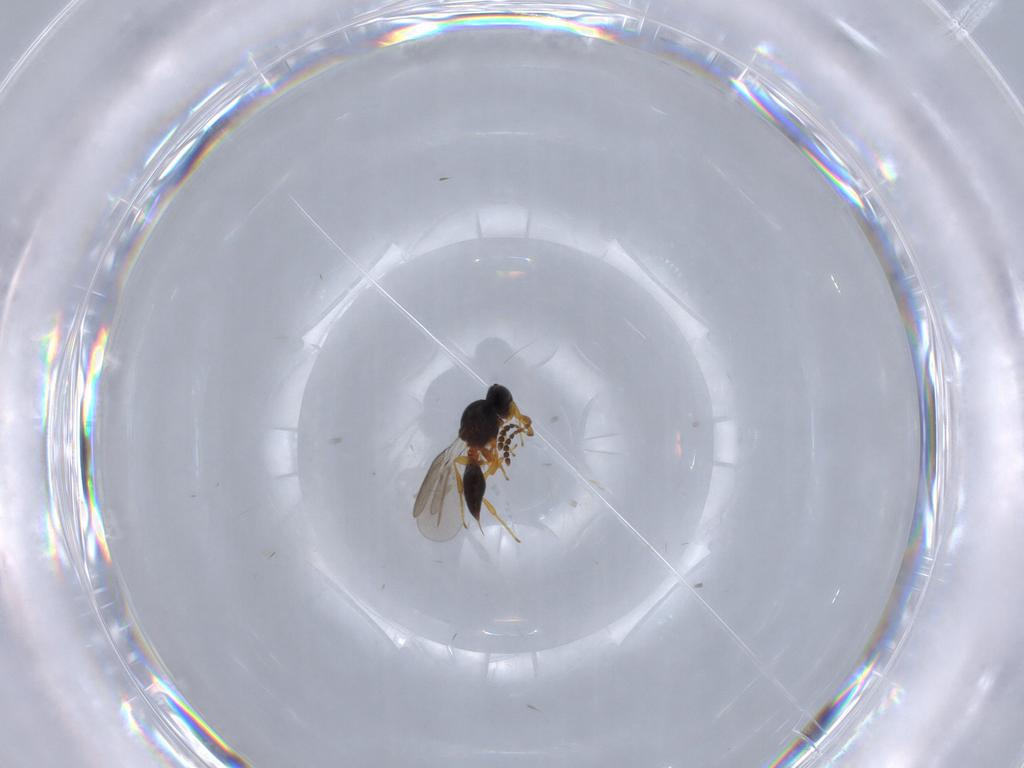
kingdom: Animalia
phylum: Arthropoda
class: Insecta
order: Hymenoptera
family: Platygastridae
